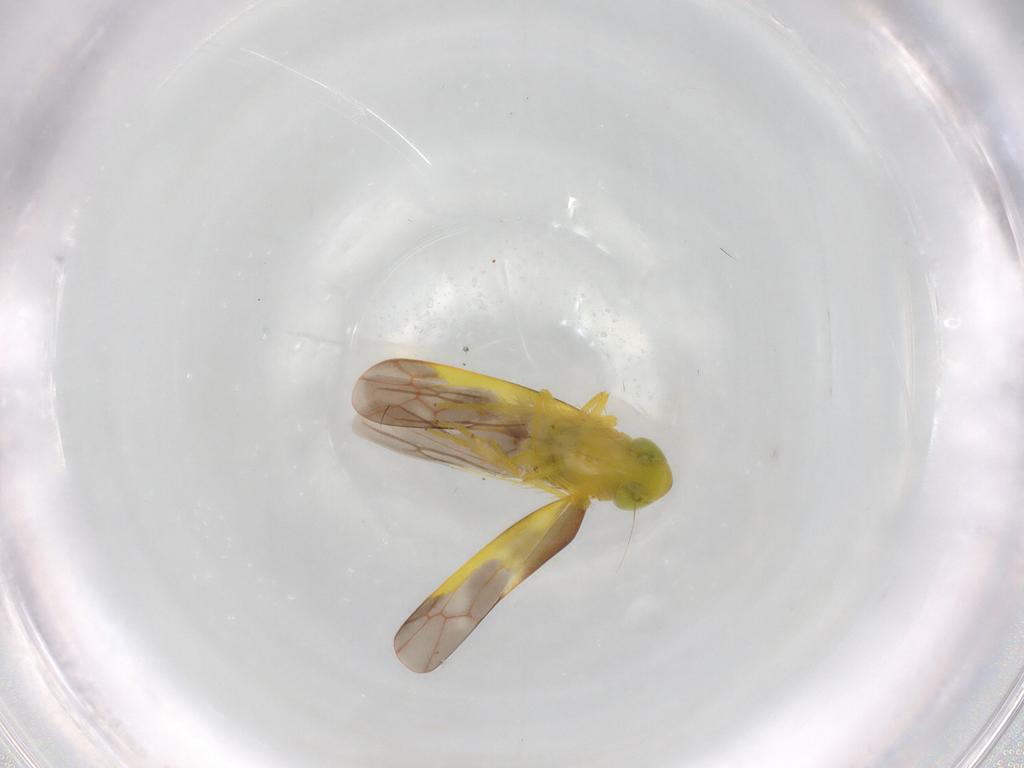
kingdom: Animalia
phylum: Arthropoda
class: Insecta
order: Hemiptera
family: Cicadellidae
